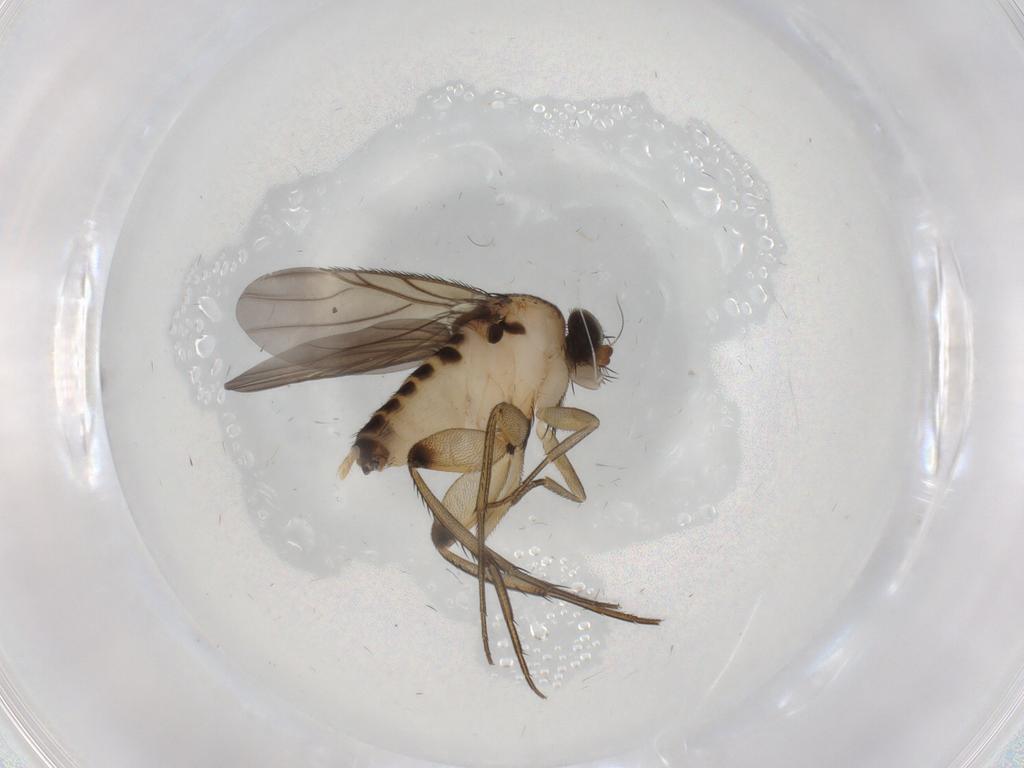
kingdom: Animalia
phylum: Arthropoda
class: Insecta
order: Diptera
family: Phoridae
